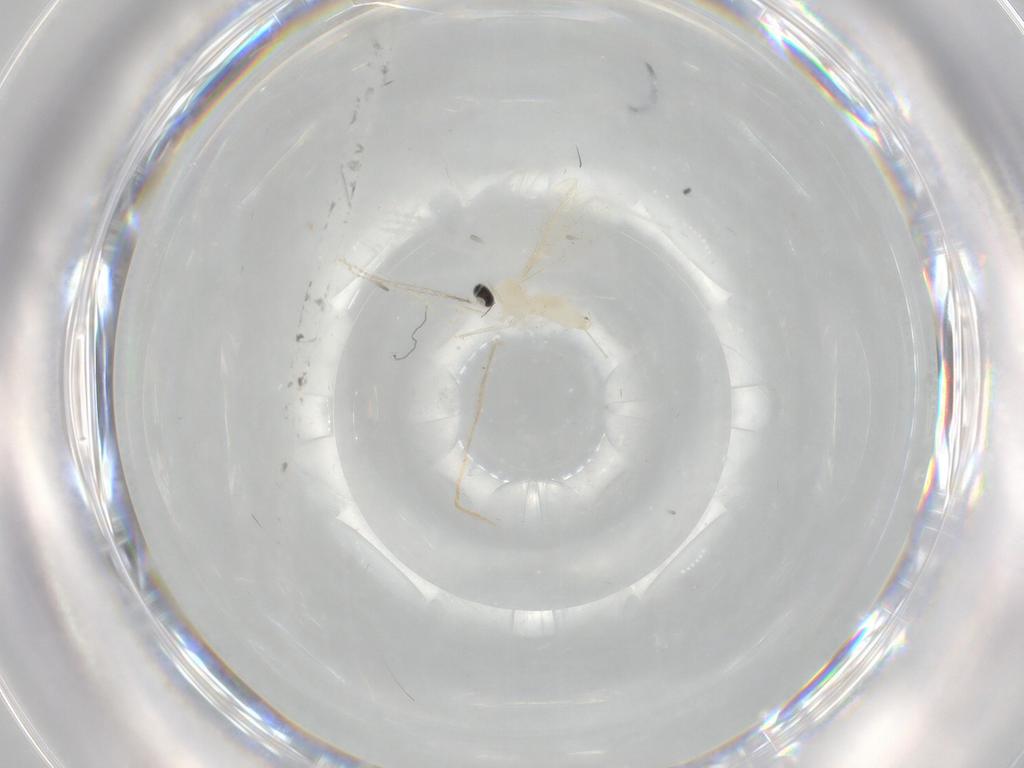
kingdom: Animalia
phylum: Arthropoda
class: Insecta
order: Diptera
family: Cecidomyiidae
